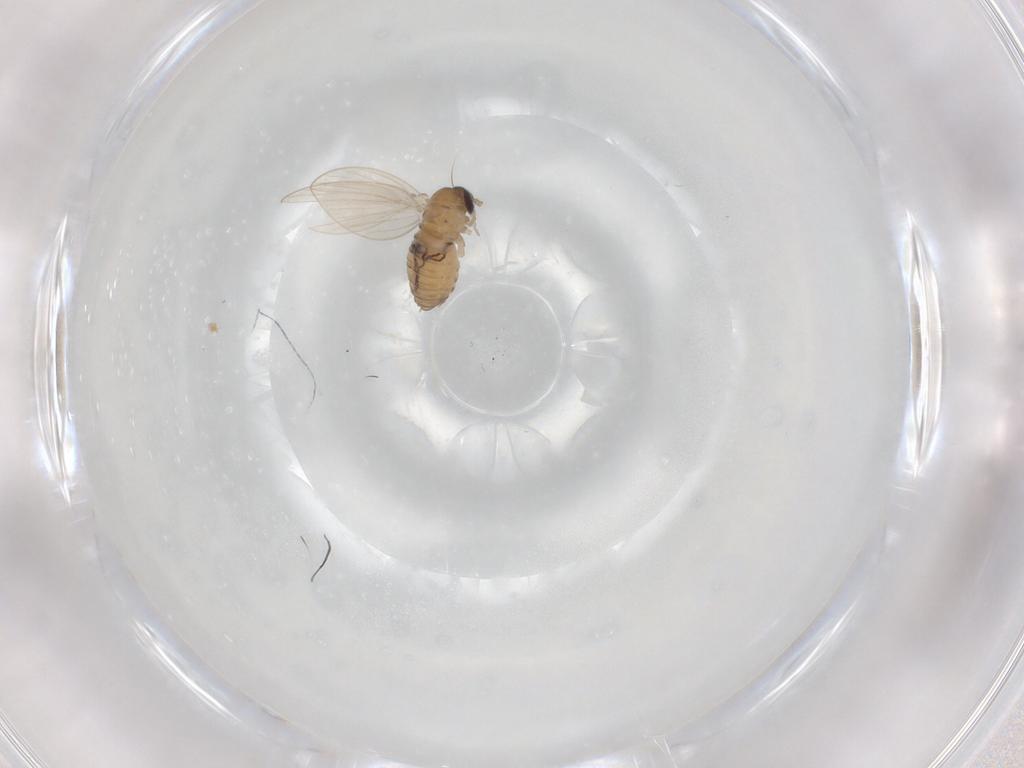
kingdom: Animalia
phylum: Arthropoda
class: Insecta
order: Diptera
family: Psychodidae
